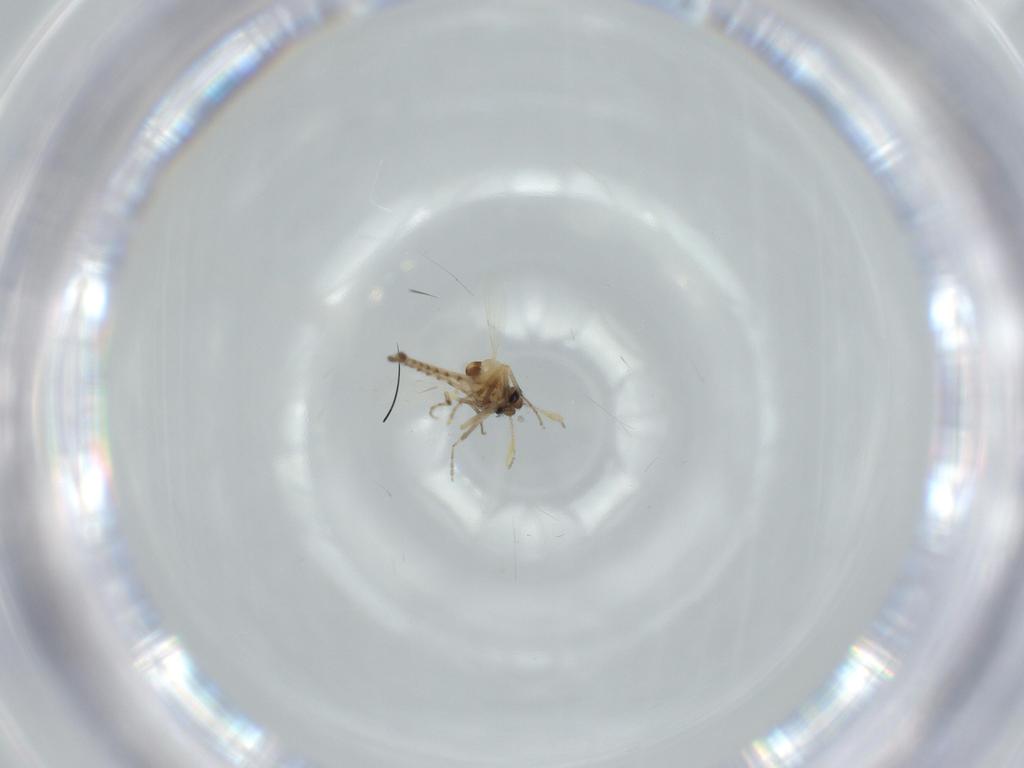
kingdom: Animalia
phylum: Arthropoda
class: Insecta
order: Diptera
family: Ceratopogonidae
